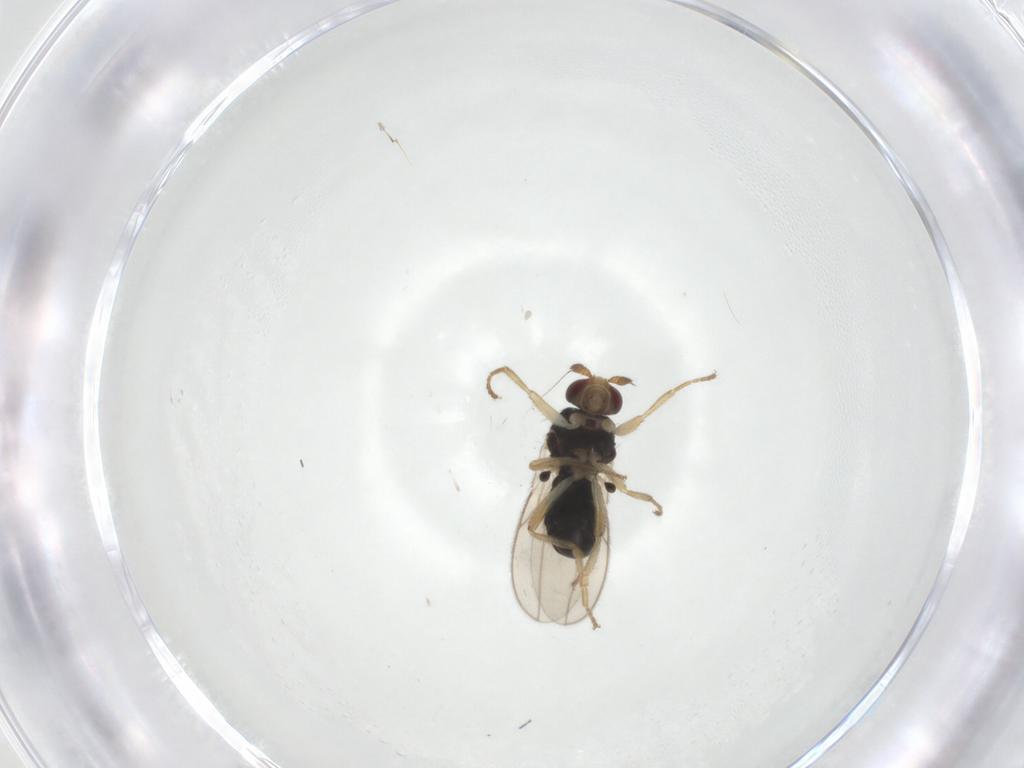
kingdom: Animalia
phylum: Arthropoda
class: Insecta
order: Diptera
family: Sphaeroceridae
